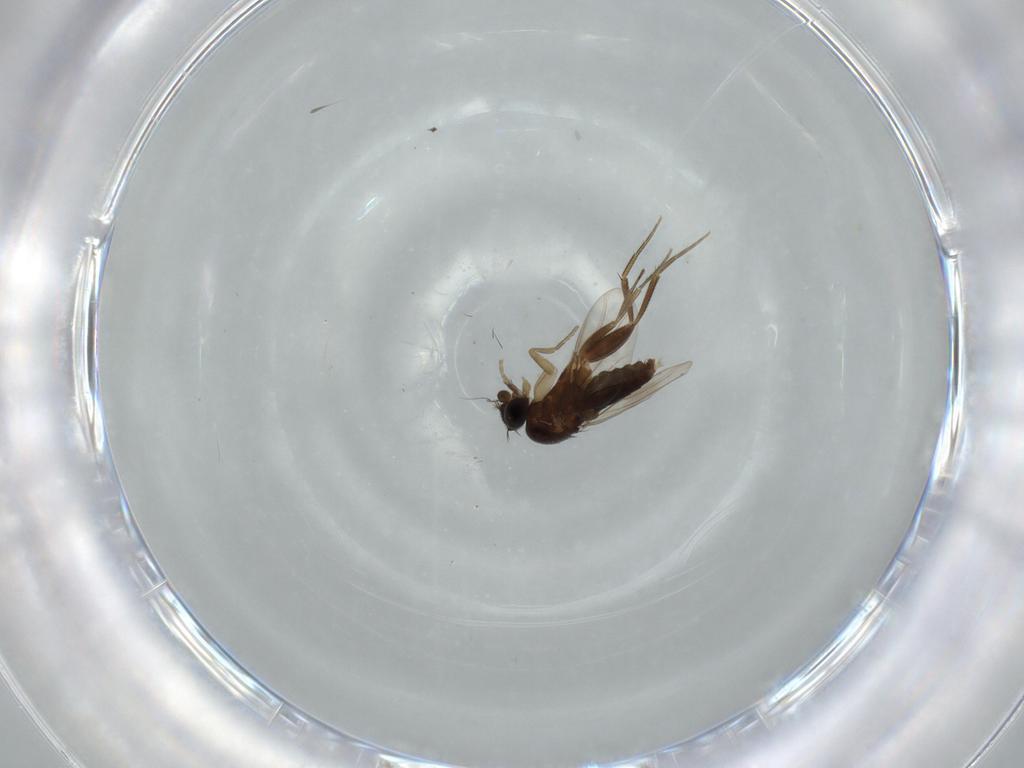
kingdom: Animalia
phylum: Arthropoda
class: Insecta
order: Diptera
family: Phoridae
